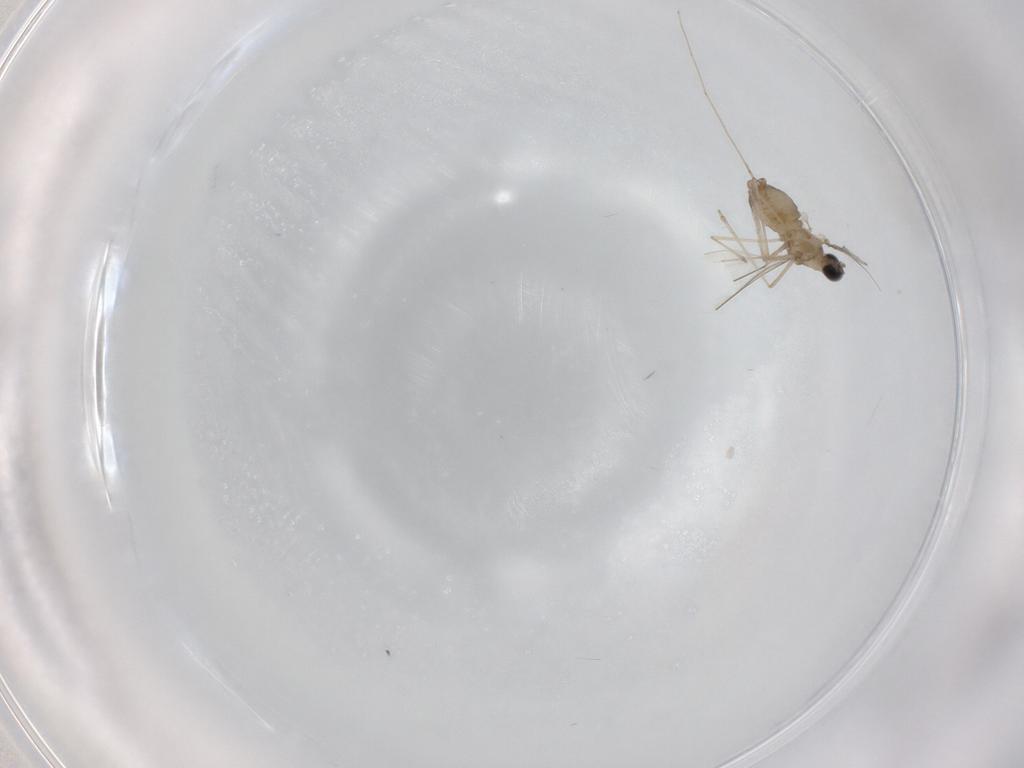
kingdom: Animalia
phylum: Arthropoda
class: Insecta
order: Diptera
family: Cecidomyiidae
